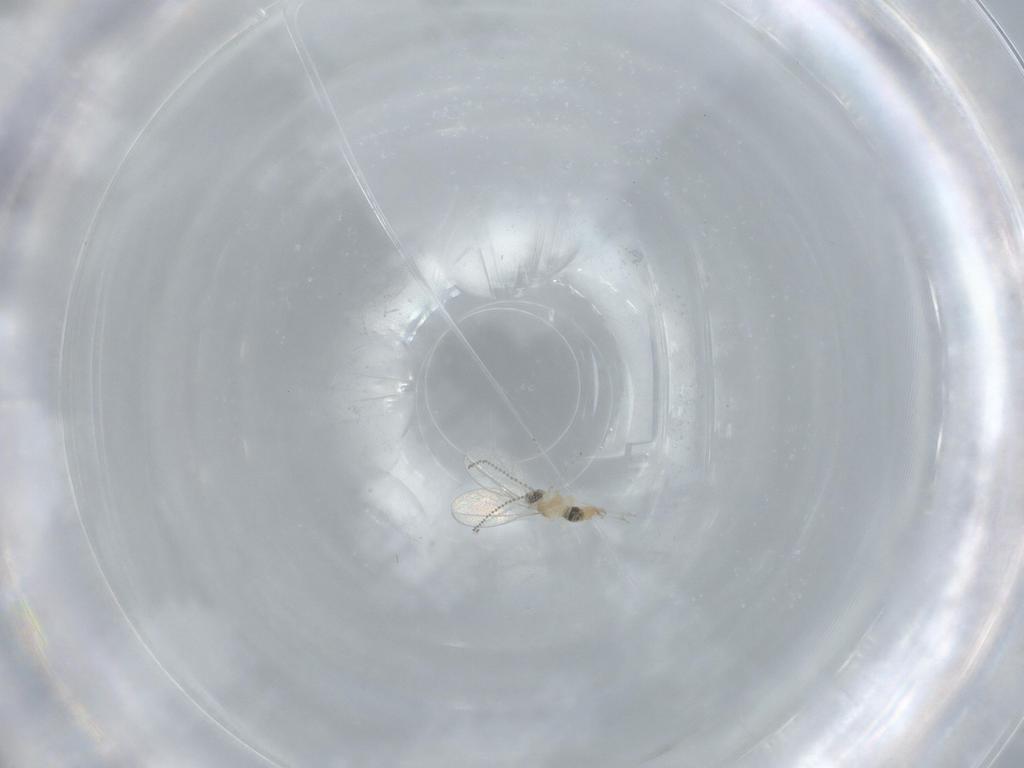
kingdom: Animalia
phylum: Arthropoda
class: Insecta
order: Diptera
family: Cecidomyiidae
